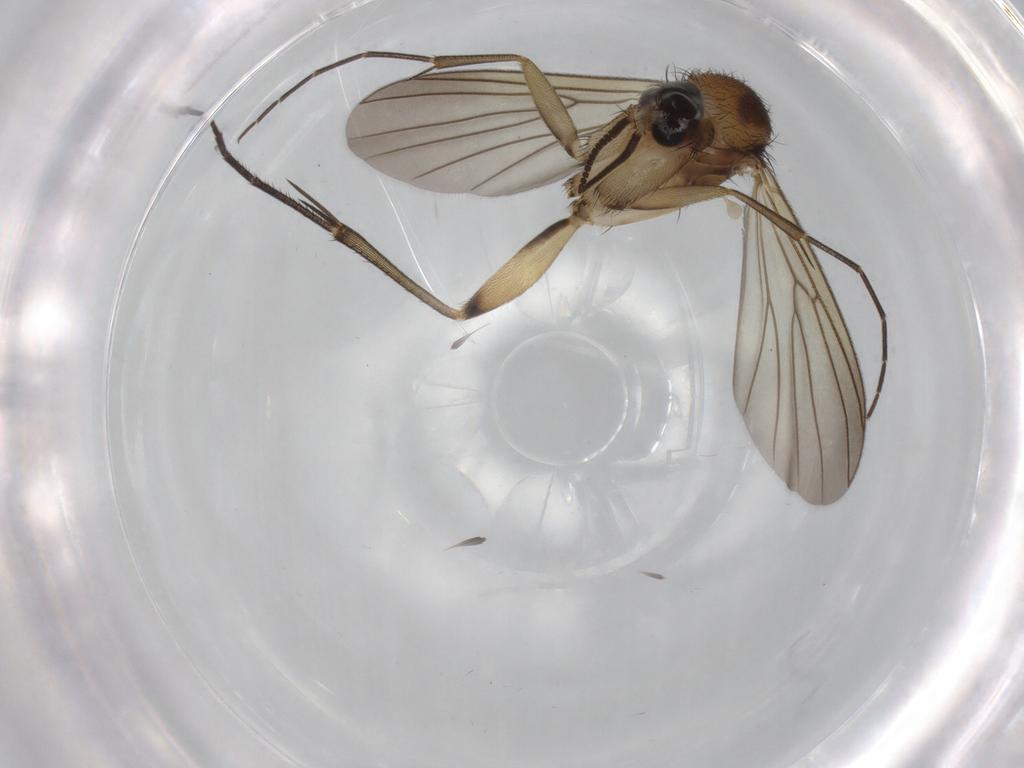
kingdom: Animalia
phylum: Arthropoda
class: Insecta
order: Diptera
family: Mycetophilidae
